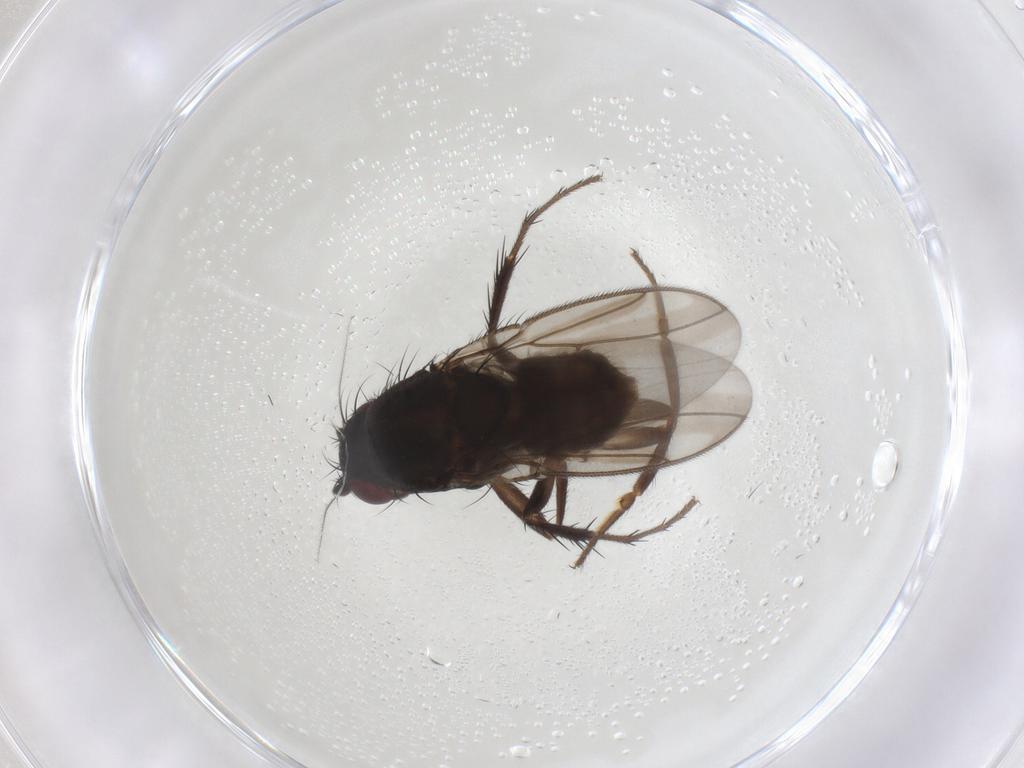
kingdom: Animalia
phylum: Arthropoda
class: Insecta
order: Diptera
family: Sphaeroceridae
